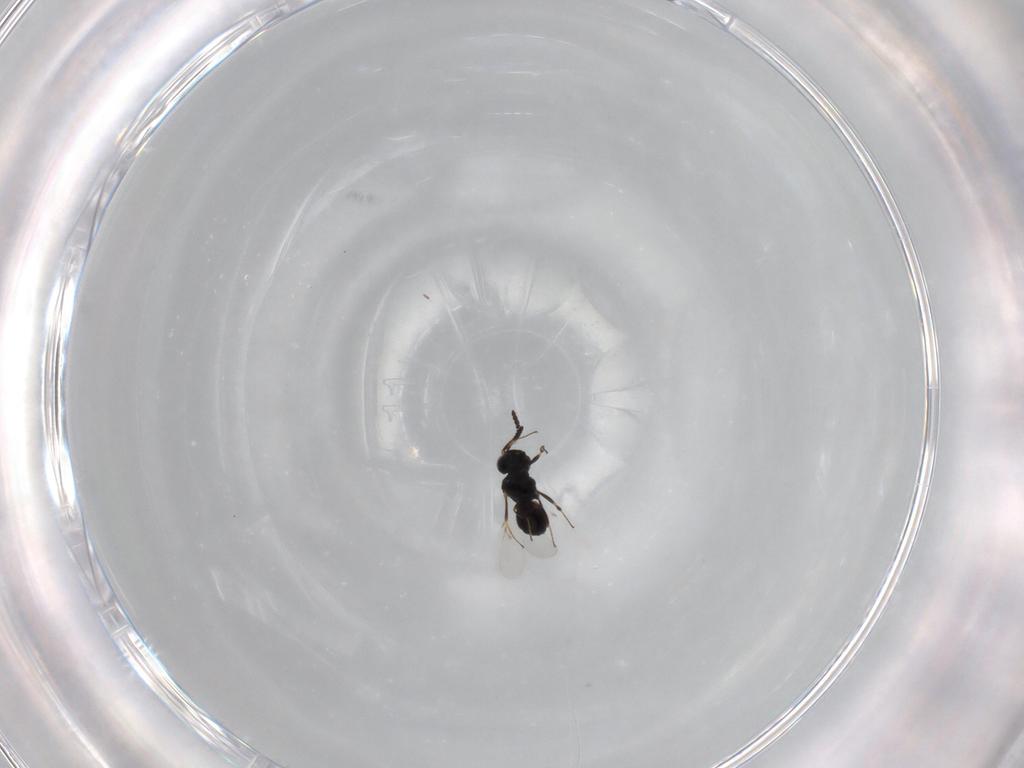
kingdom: Animalia
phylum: Arthropoda
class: Insecta
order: Hymenoptera
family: Scelionidae
